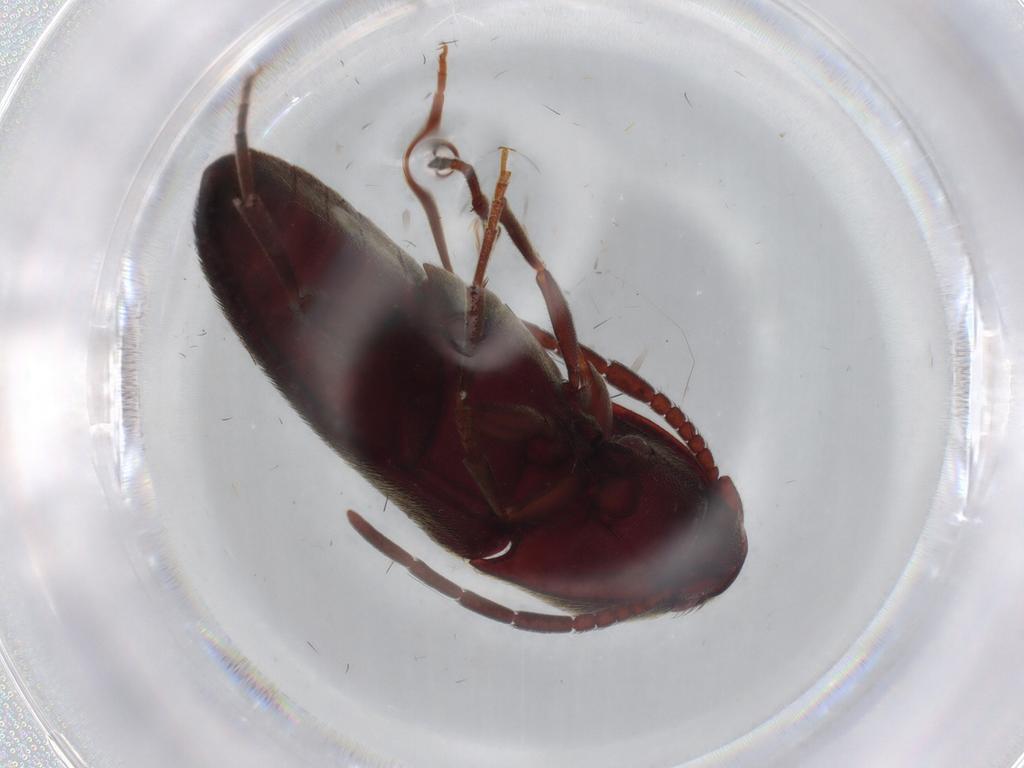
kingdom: Animalia
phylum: Arthropoda
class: Insecta
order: Coleoptera
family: Eucnemidae
